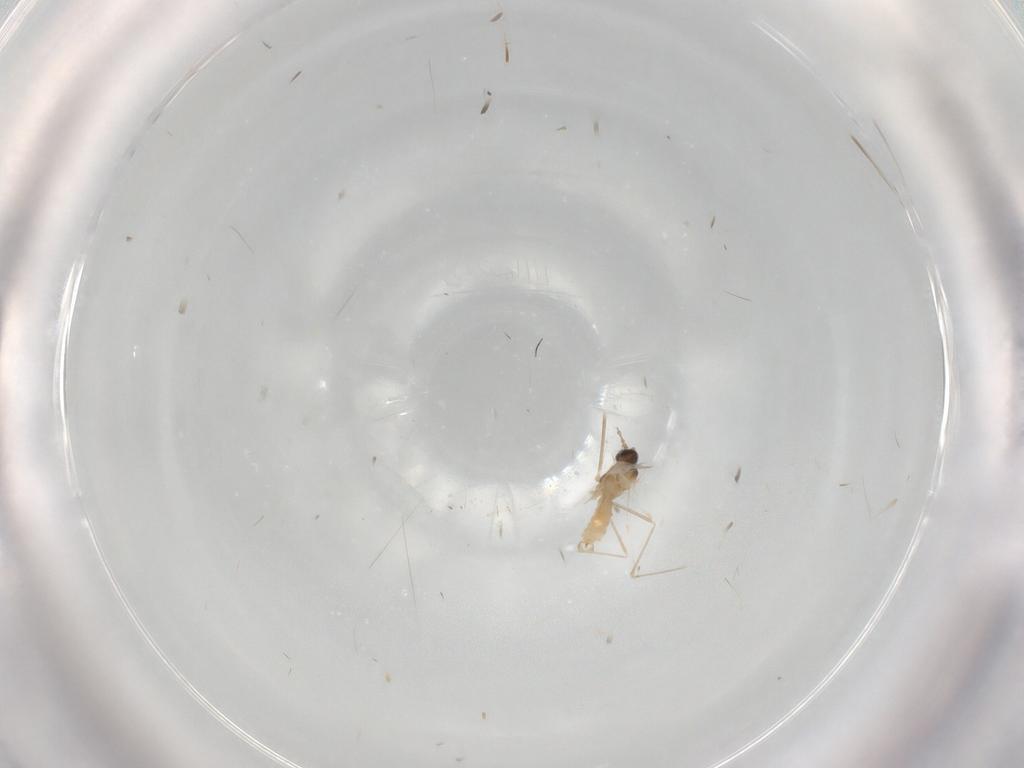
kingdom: Animalia
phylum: Arthropoda
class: Insecta
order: Diptera
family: Cecidomyiidae
